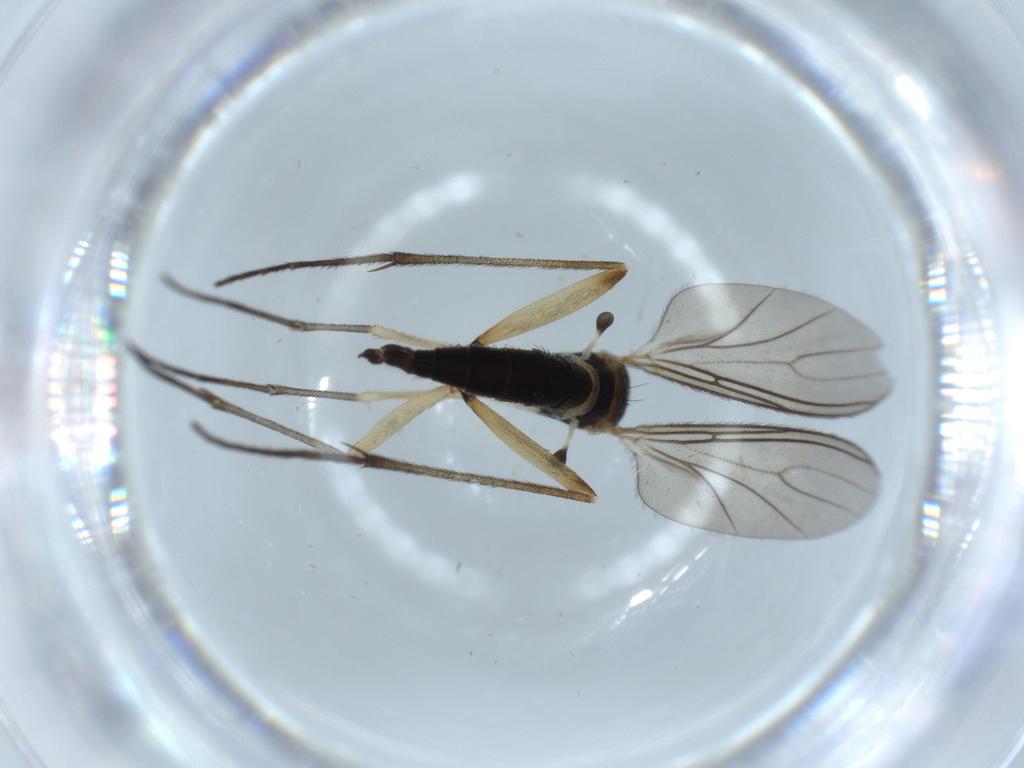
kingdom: Animalia
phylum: Arthropoda
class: Insecta
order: Diptera
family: Sciaridae
